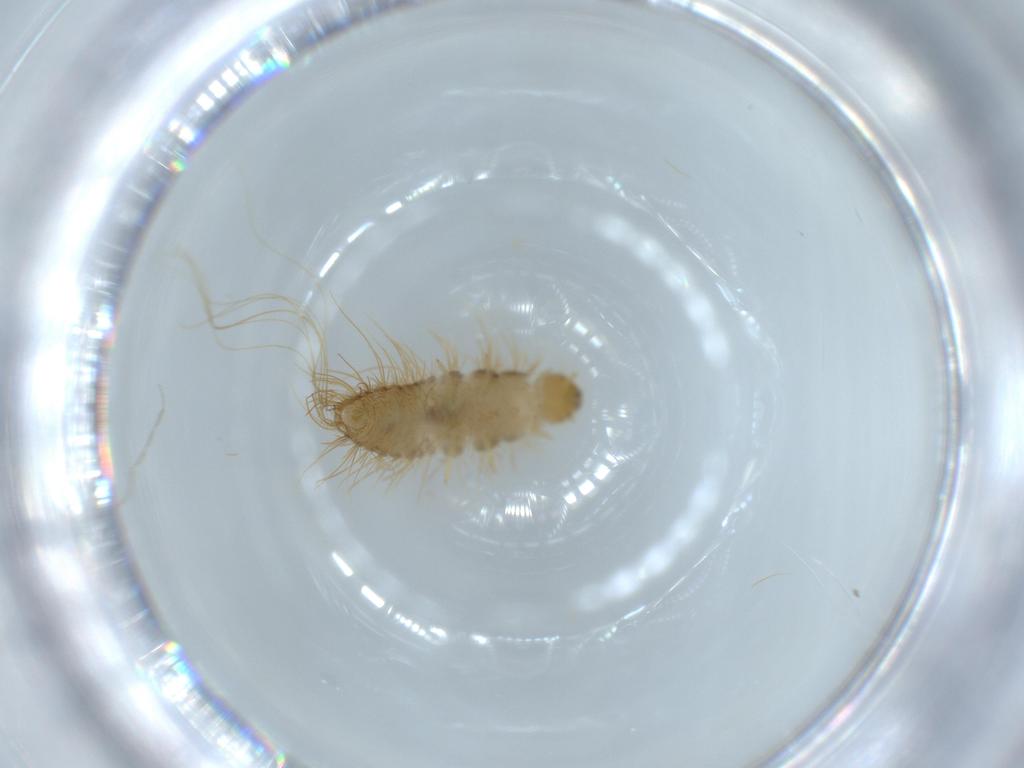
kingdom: Animalia
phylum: Arthropoda
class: Insecta
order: Coleoptera
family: Dermestidae
